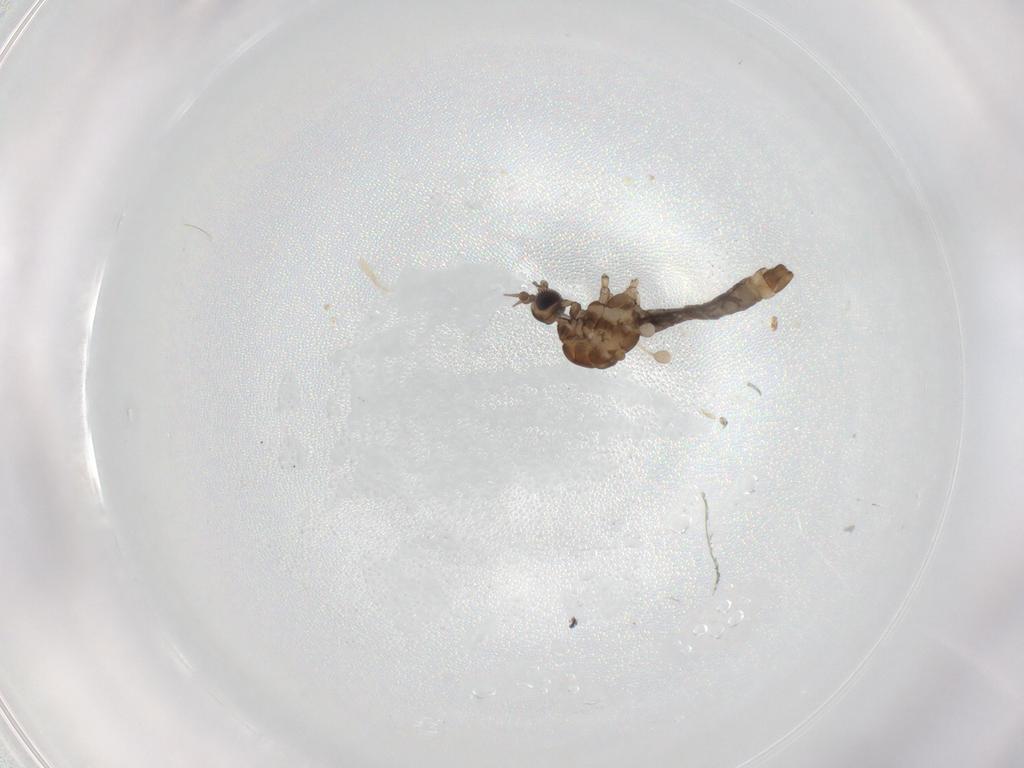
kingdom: Animalia
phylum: Arthropoda
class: Insecta
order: Diptera
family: Limoniidae
